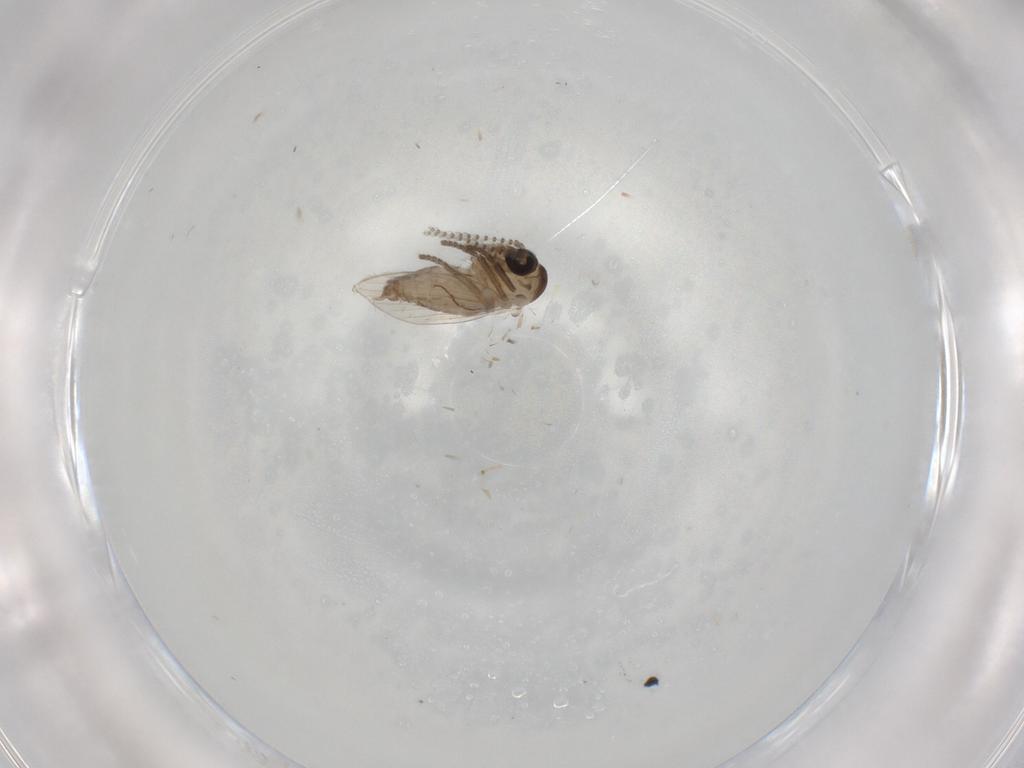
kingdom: Animalia
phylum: Arthropoda
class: Insecta
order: Diptera
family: Psychodidae
